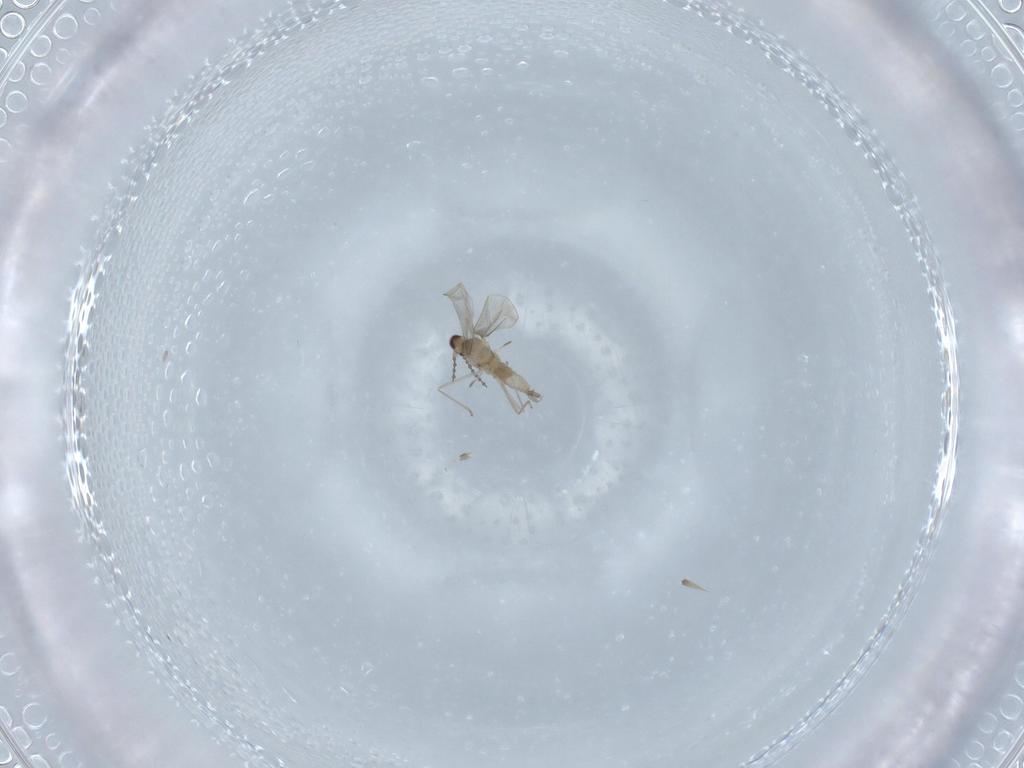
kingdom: Animalia
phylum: Arthropoda
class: Insecta
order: Diptera
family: Cecidomyiidae
